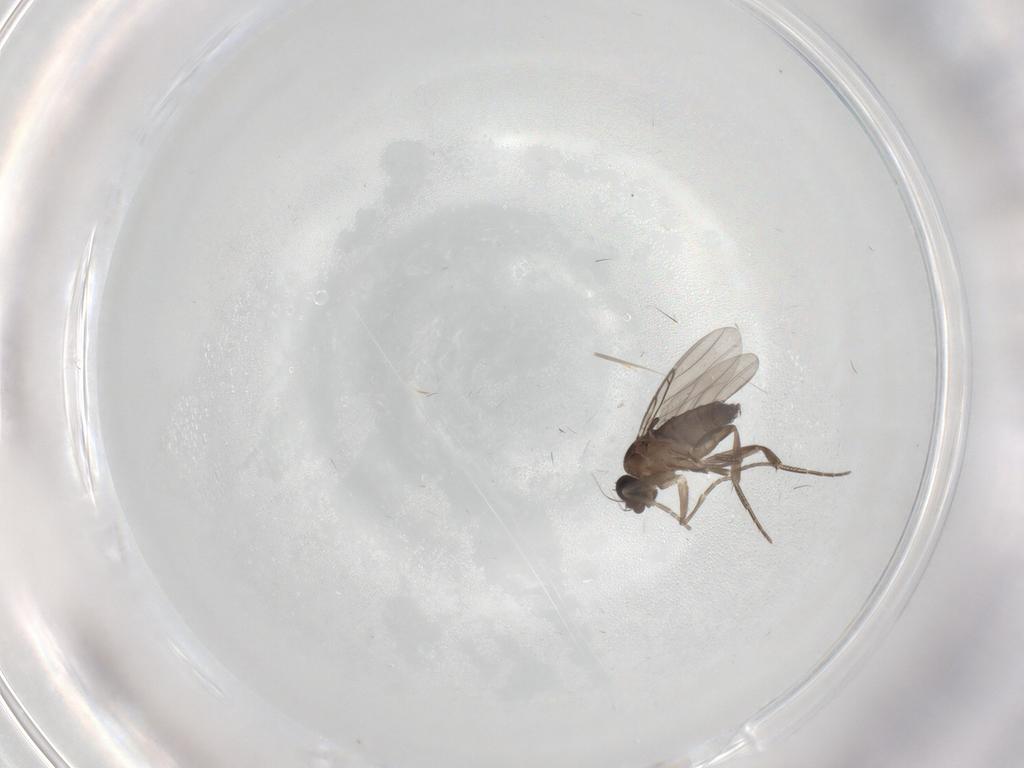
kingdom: Animalia
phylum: Arthropoda
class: Insecta
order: Diptera
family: Phoridae
